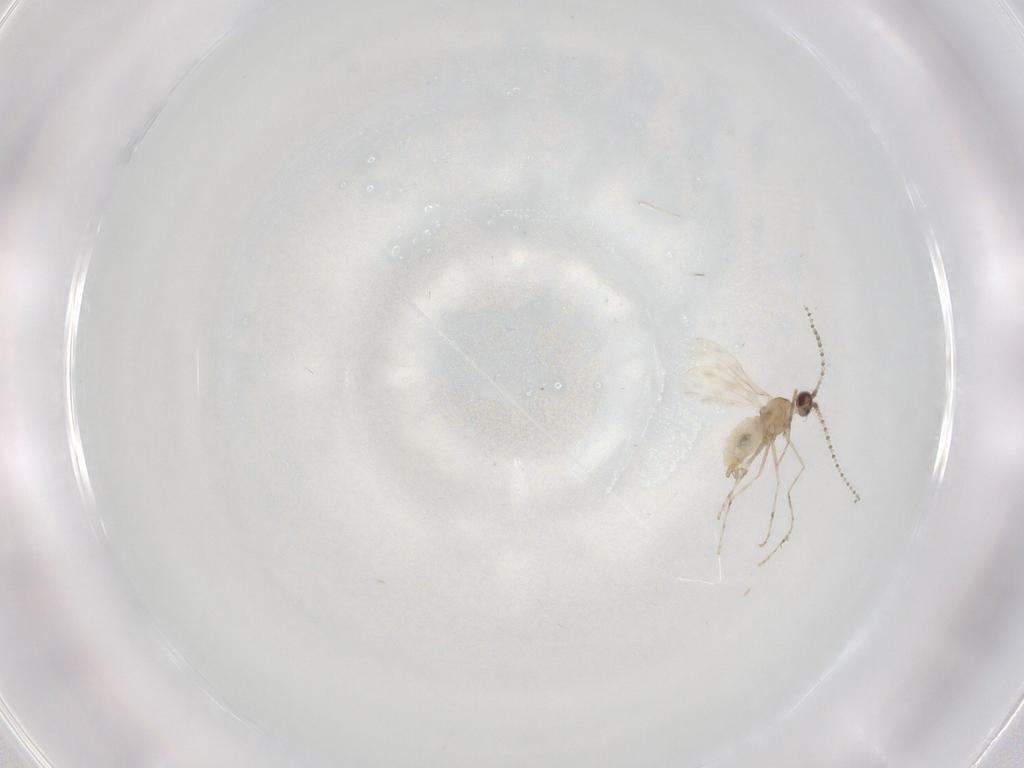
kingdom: Animalia
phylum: Arthropoda
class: Insecta
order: Diptera
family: Cecidomyiidae
